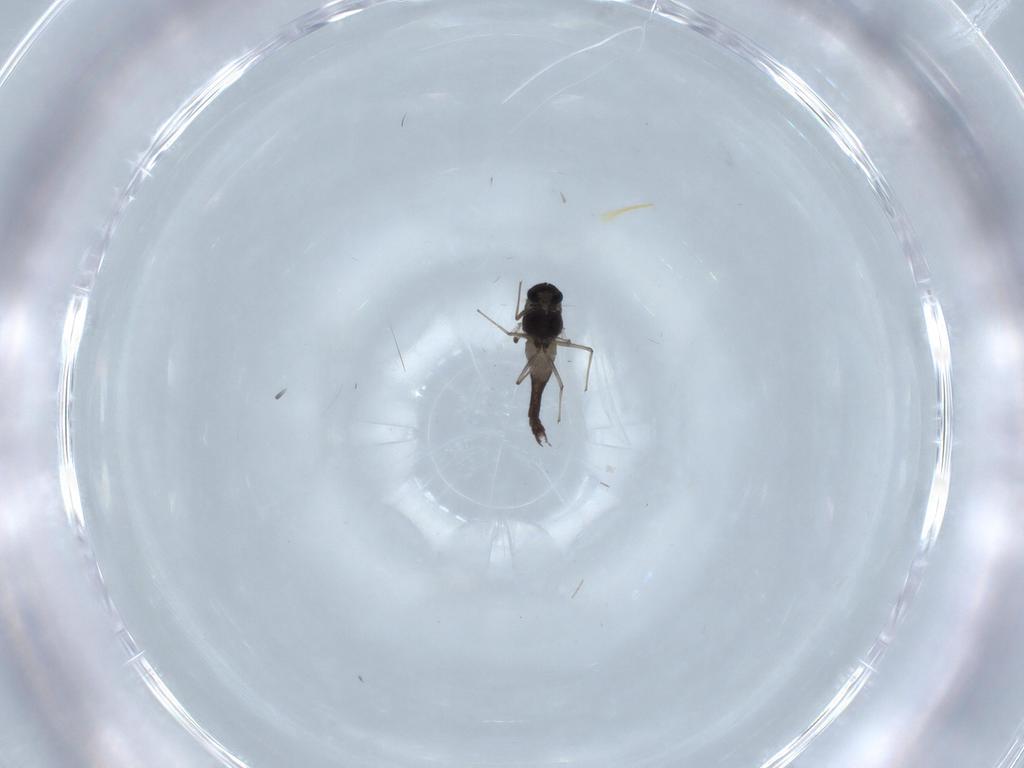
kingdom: Animalia
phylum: Arthropoda
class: Insecta
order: Diptera
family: Chironomidae
